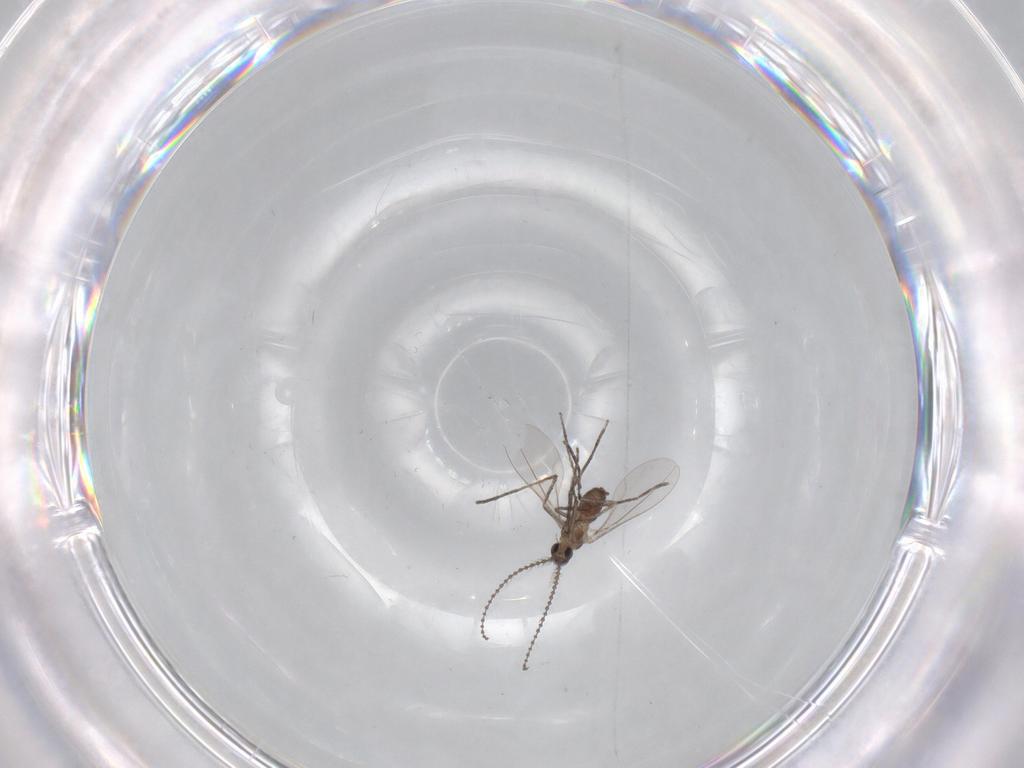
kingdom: Animalia
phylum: Arthropoda
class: Insecta
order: Diptera
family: Cecidomyiidae
